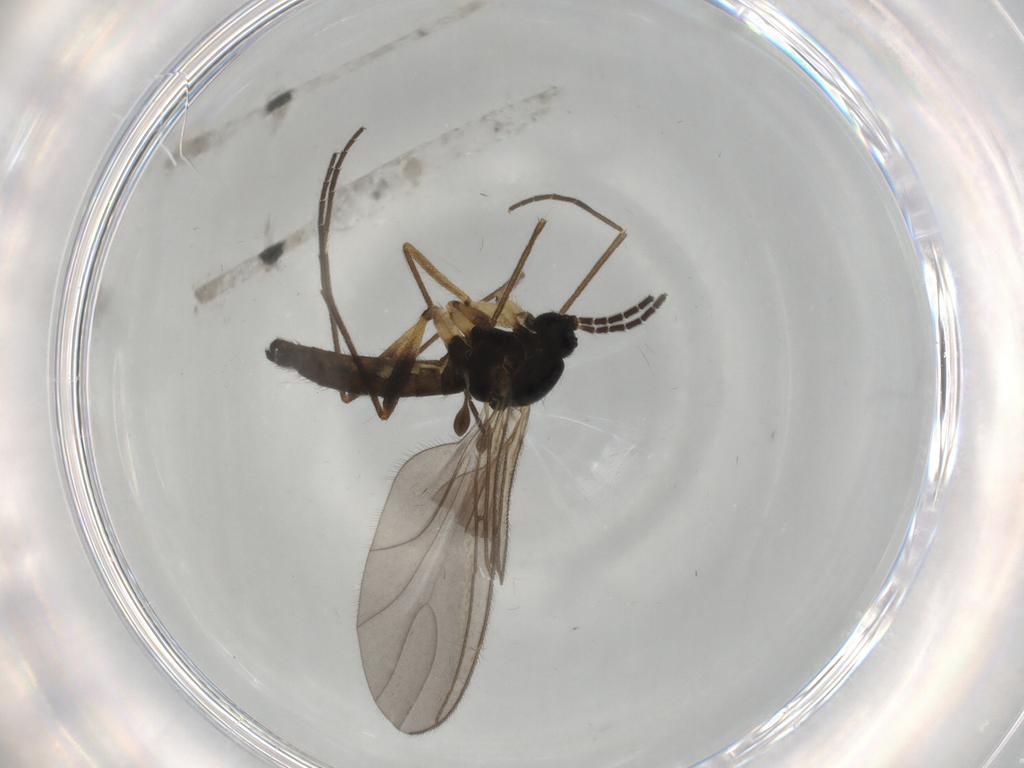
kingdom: Animalia
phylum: Arthropoda
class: Insecta
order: Diptera
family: Sciaridae
